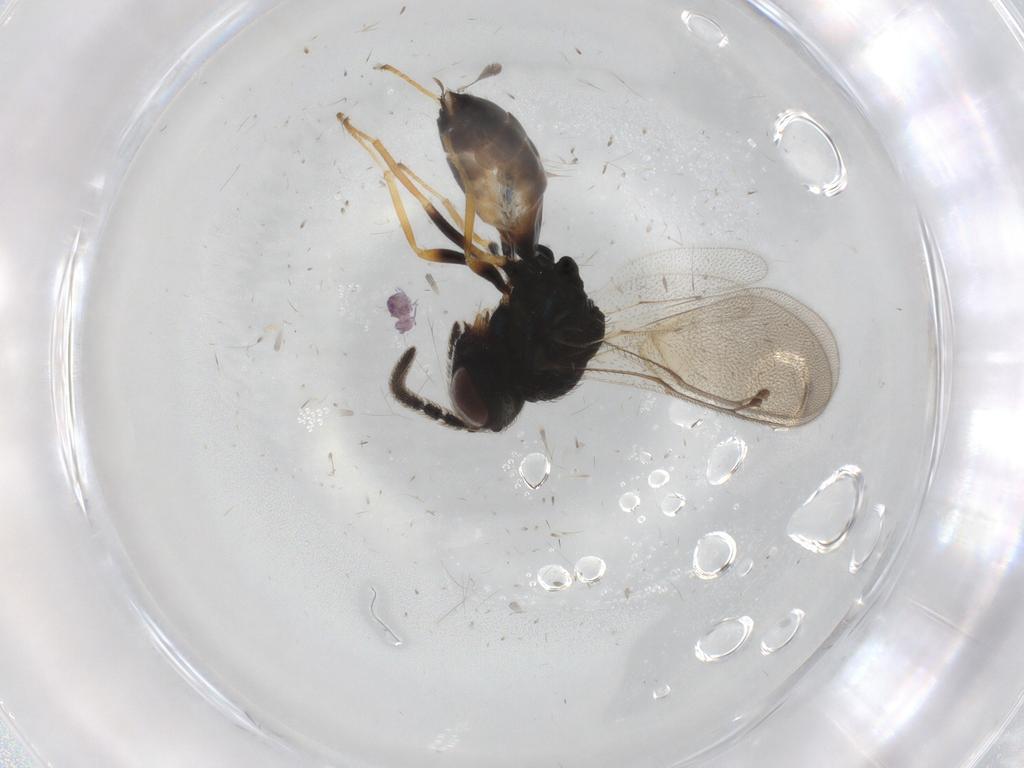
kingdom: Animalia
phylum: Arthropoda
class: Insecta
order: Hymenoptera
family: Pteromalidae
